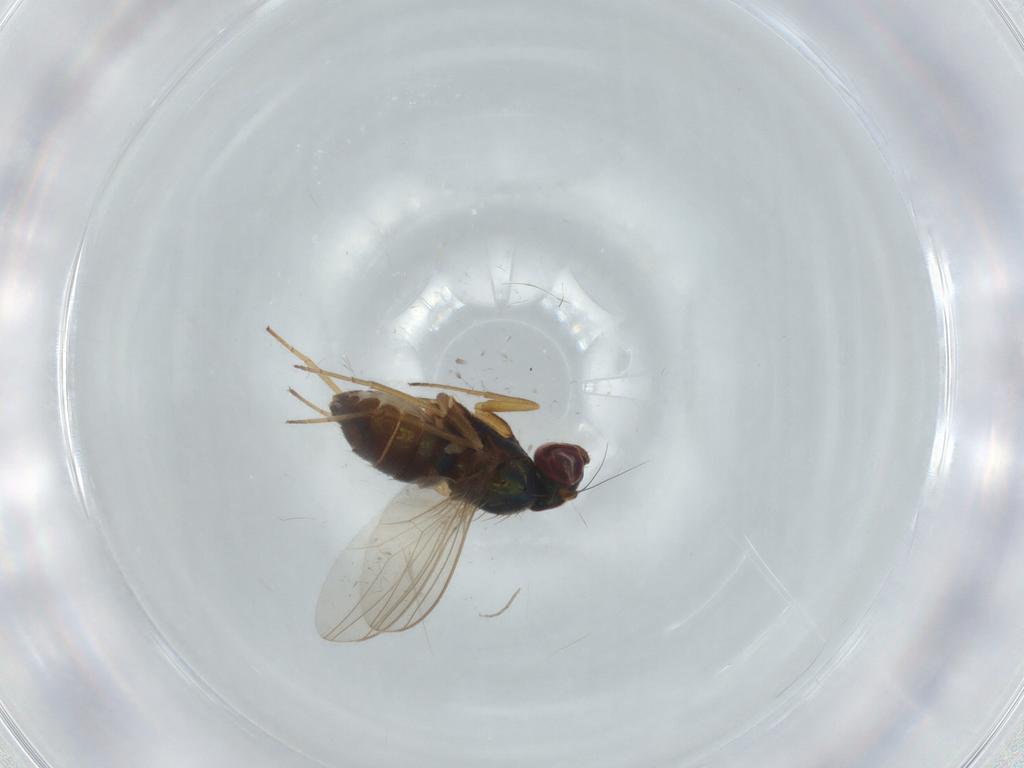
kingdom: Animalia
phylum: Arthropoda
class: Insecta
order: Diptera
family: Dolichopodidae
